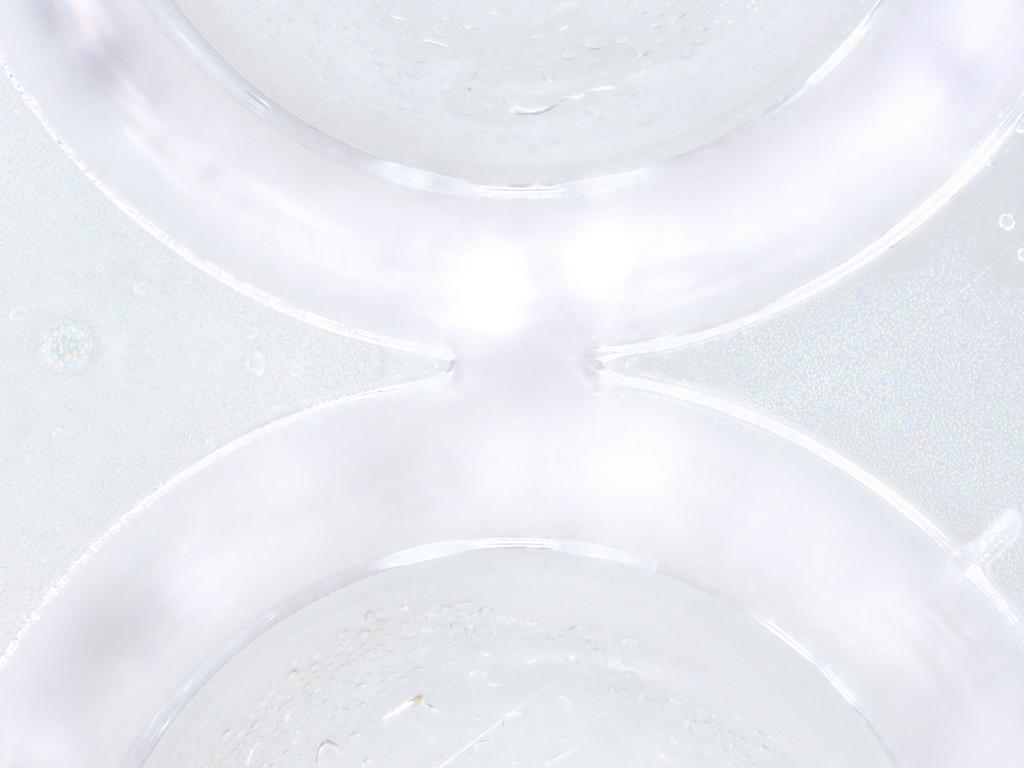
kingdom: Animalia
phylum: Arthropoda
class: Insecta
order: Diptera
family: Cecidomyiidae
